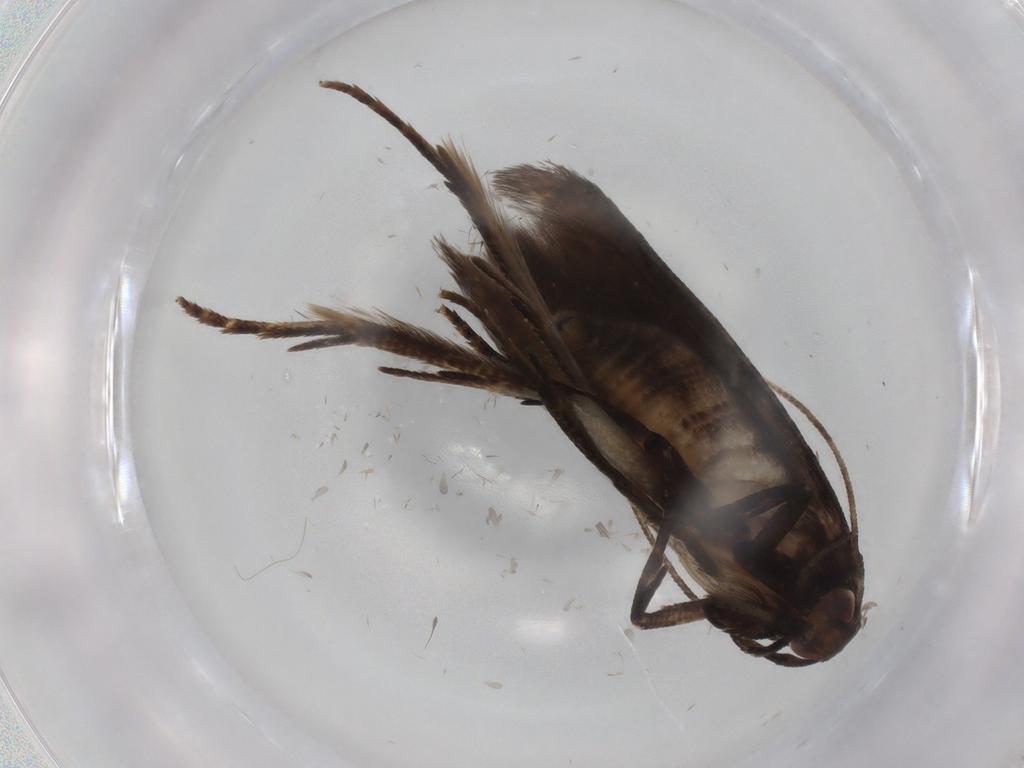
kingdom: Animalia
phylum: Arthropoda
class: Insecta
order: Lepidoptera
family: Autostichidae
